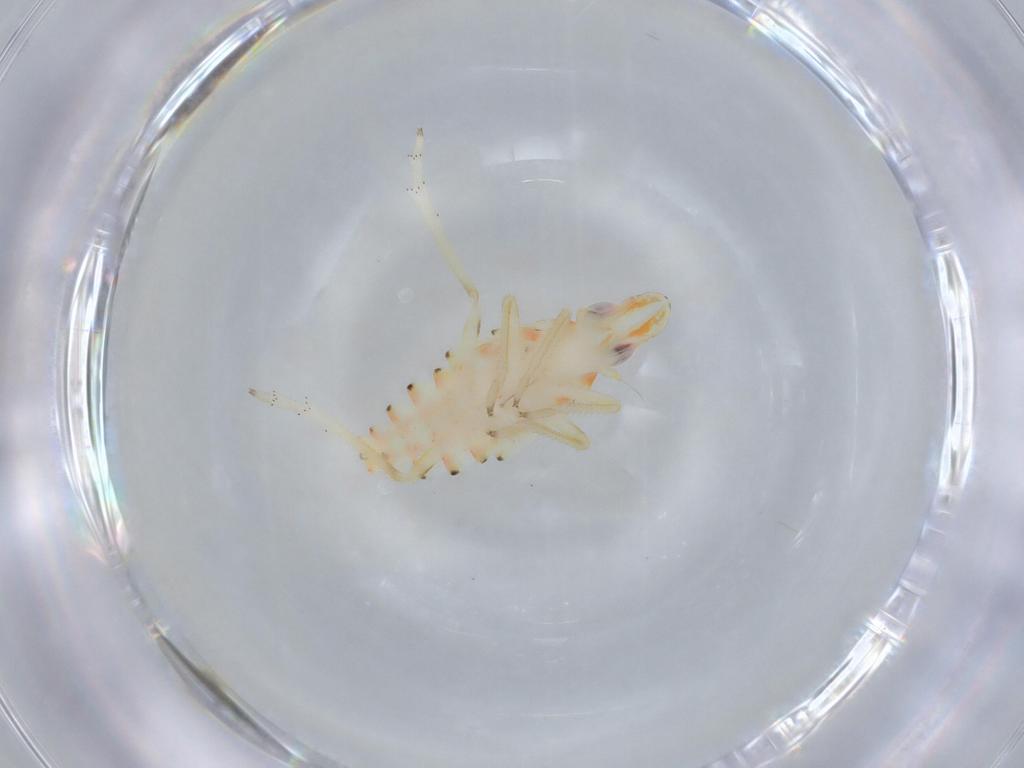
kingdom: Animalia
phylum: Arthropoda
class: Insecta
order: Hemiptera
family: Tropiduchidae
